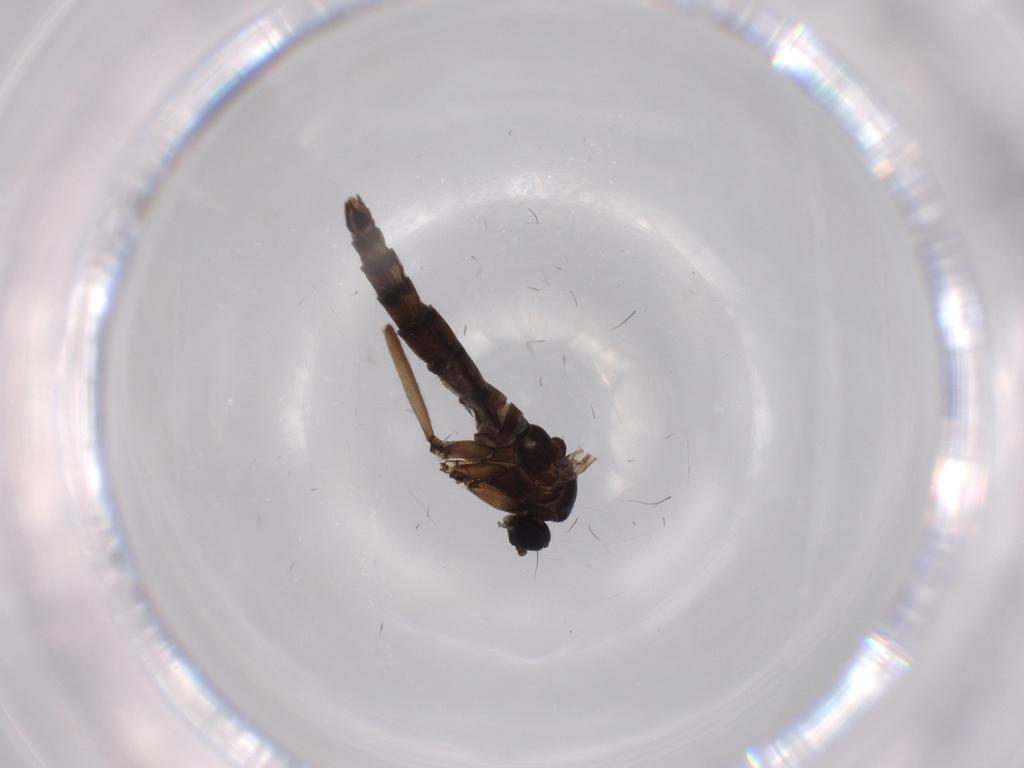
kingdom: Animalia
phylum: Arthropoda
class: Insecta
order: Diptera
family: Sciaridae
